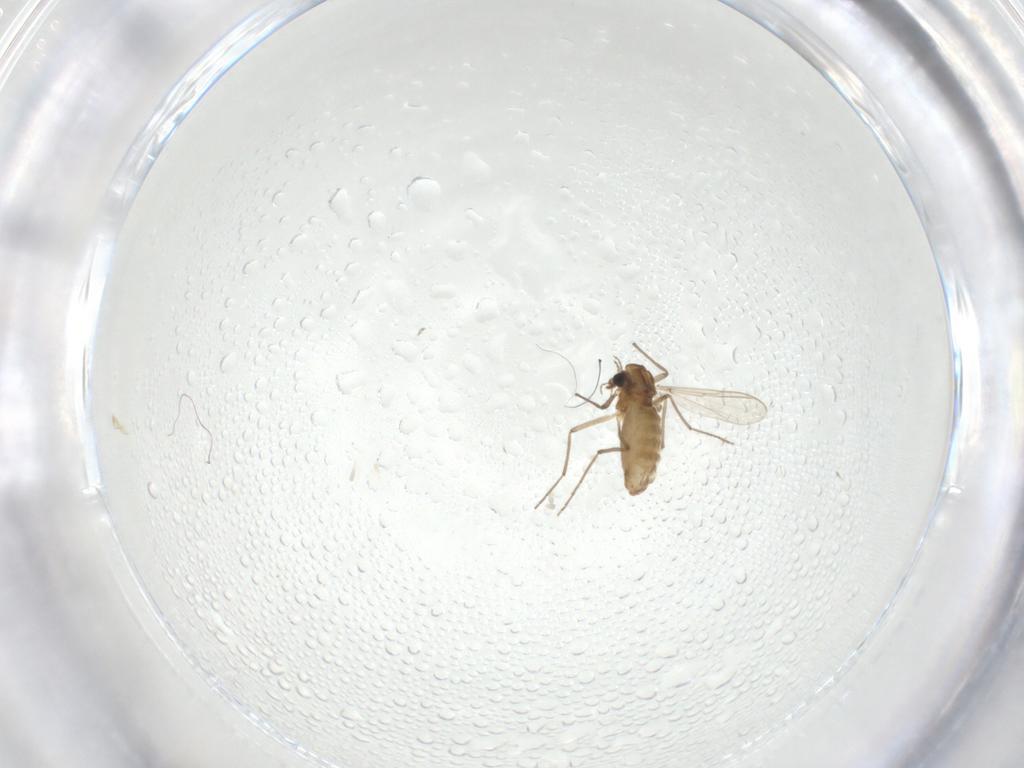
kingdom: Animalia
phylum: Arthropoda
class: Insecta
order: Diptera
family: Chironomidae
